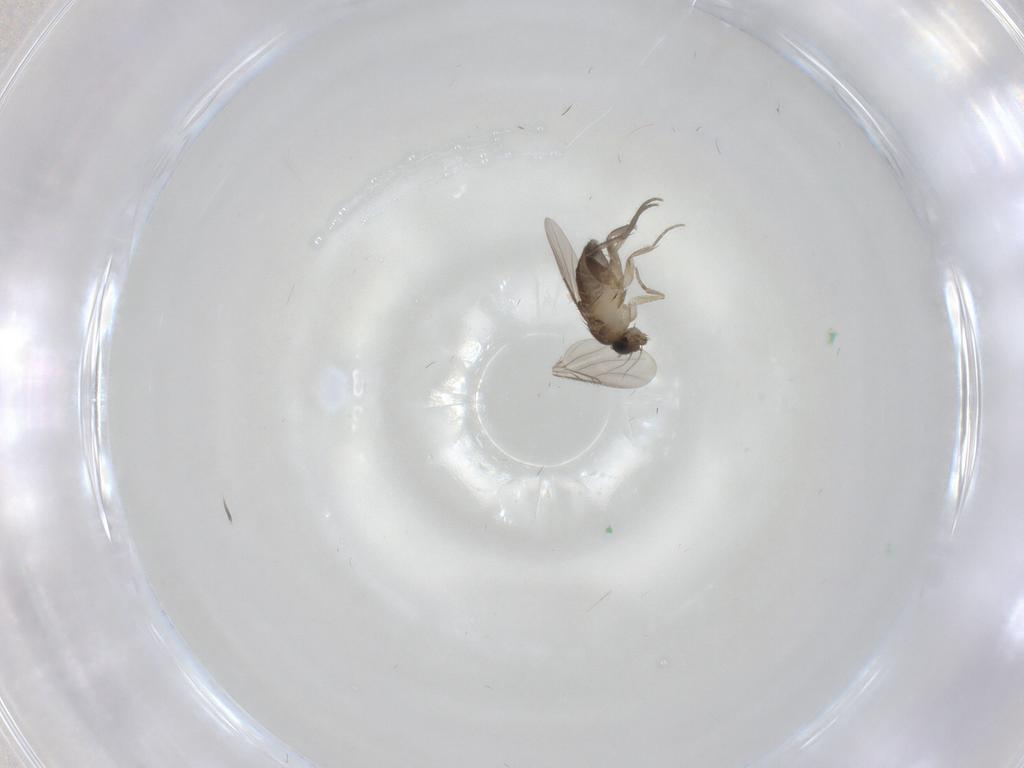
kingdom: Animalia
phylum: Arthropoda
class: Insecta
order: Diptera
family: Phoridae
